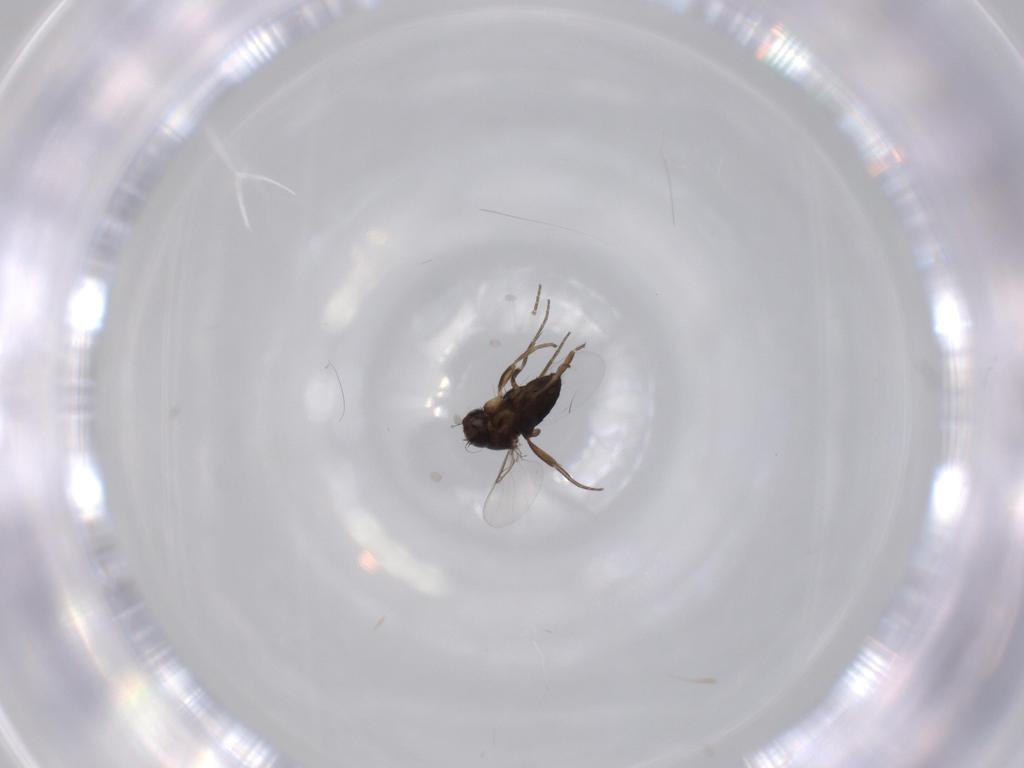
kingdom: Animalia
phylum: Arthropoda
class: Insecta
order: Diptera
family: Phoridae
